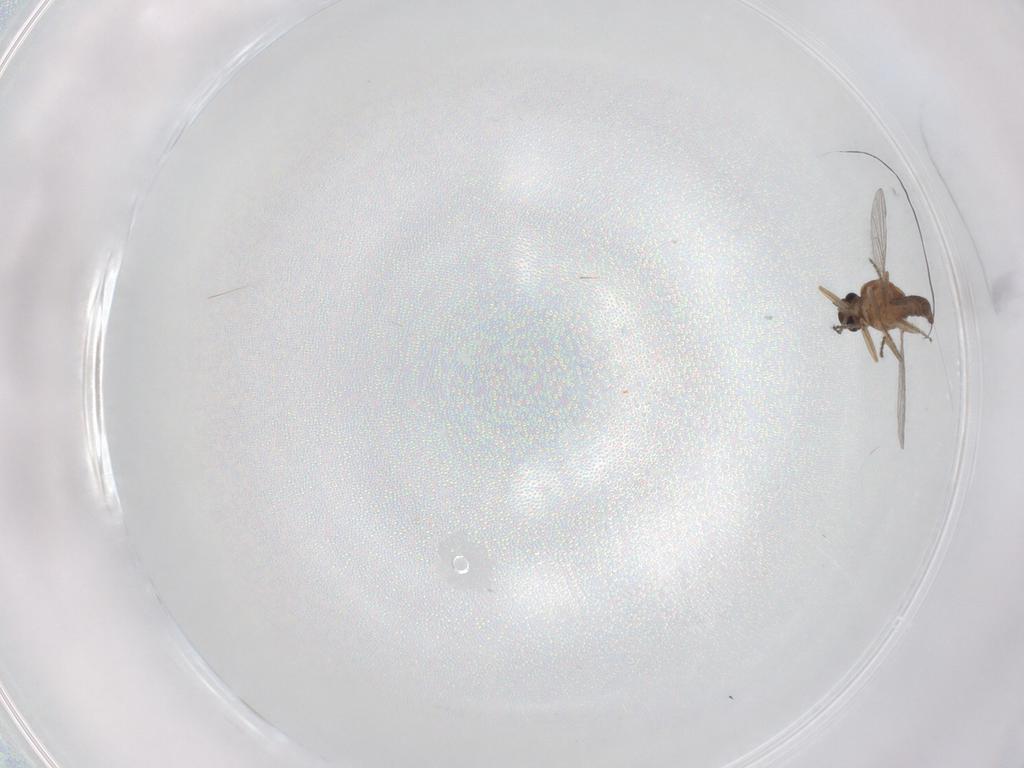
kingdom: Animalia
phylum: Arthropoda
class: Insecta
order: Diptera
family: Ceratopogonidae
